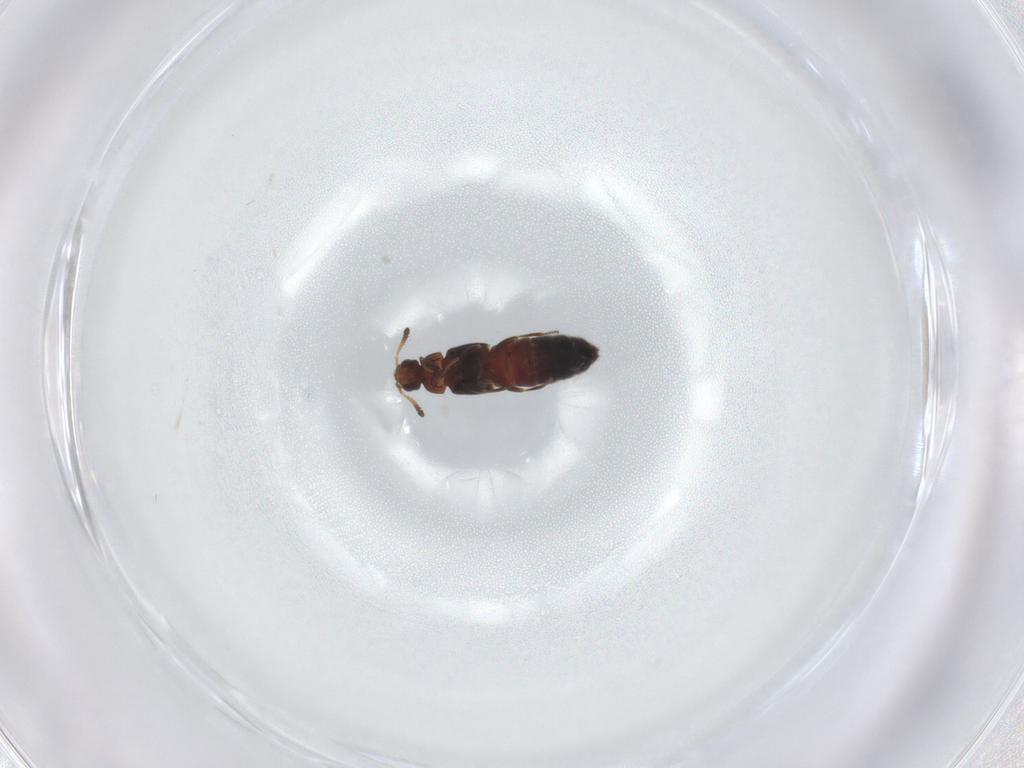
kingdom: Animalia
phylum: Arthropoda
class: Insecta
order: Coleoptera
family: Staphylinidae
